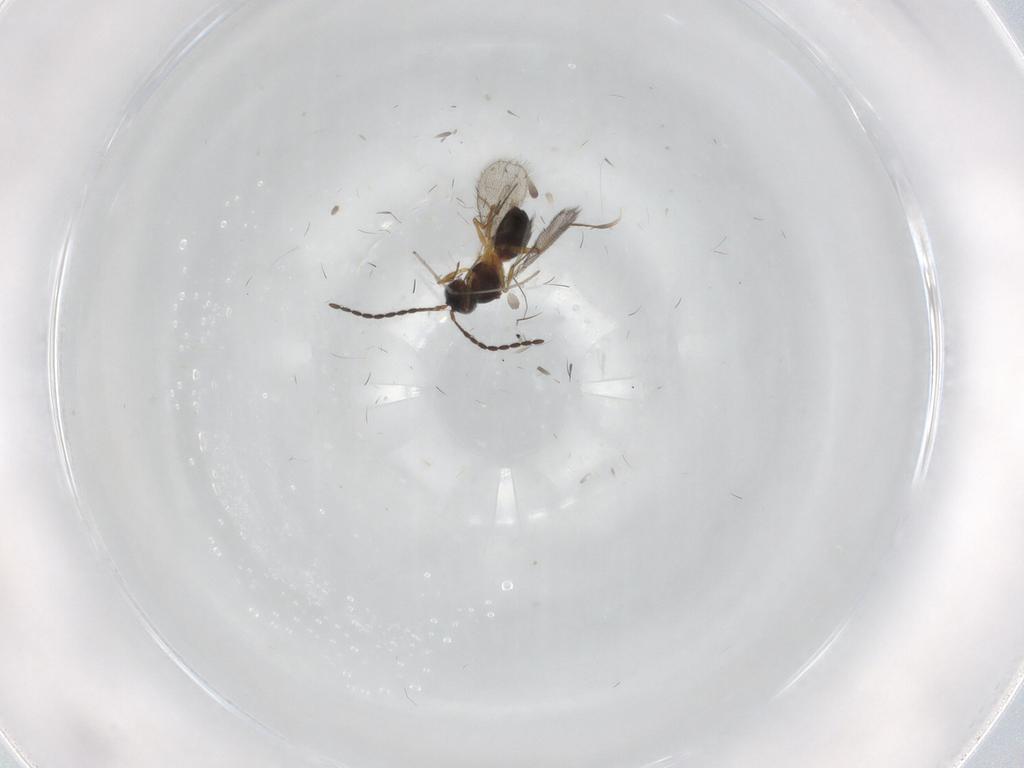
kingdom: Animalia
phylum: Arthropoda
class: Insecta
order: Hymenoptera
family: Figitidae
